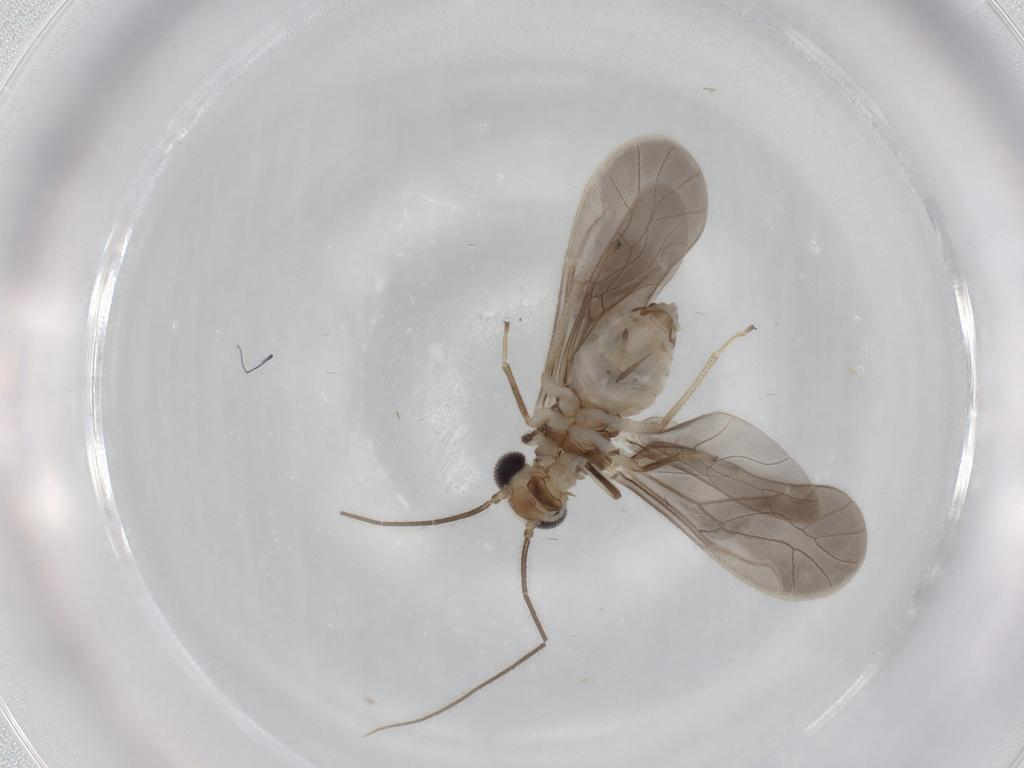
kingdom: Animalia
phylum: Arthropoda
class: Insecta
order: Psocodea
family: Caeciliusidae
